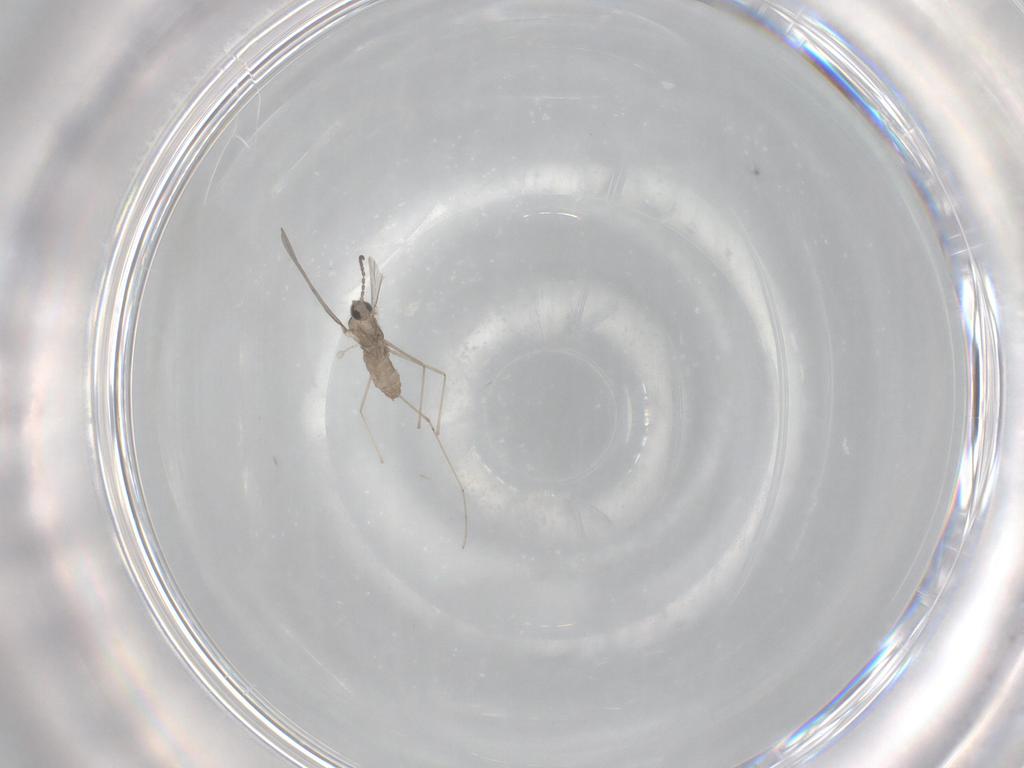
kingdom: Animalia
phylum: Arthropoda
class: Insecta
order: Diptera
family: Cecidomyiidae
